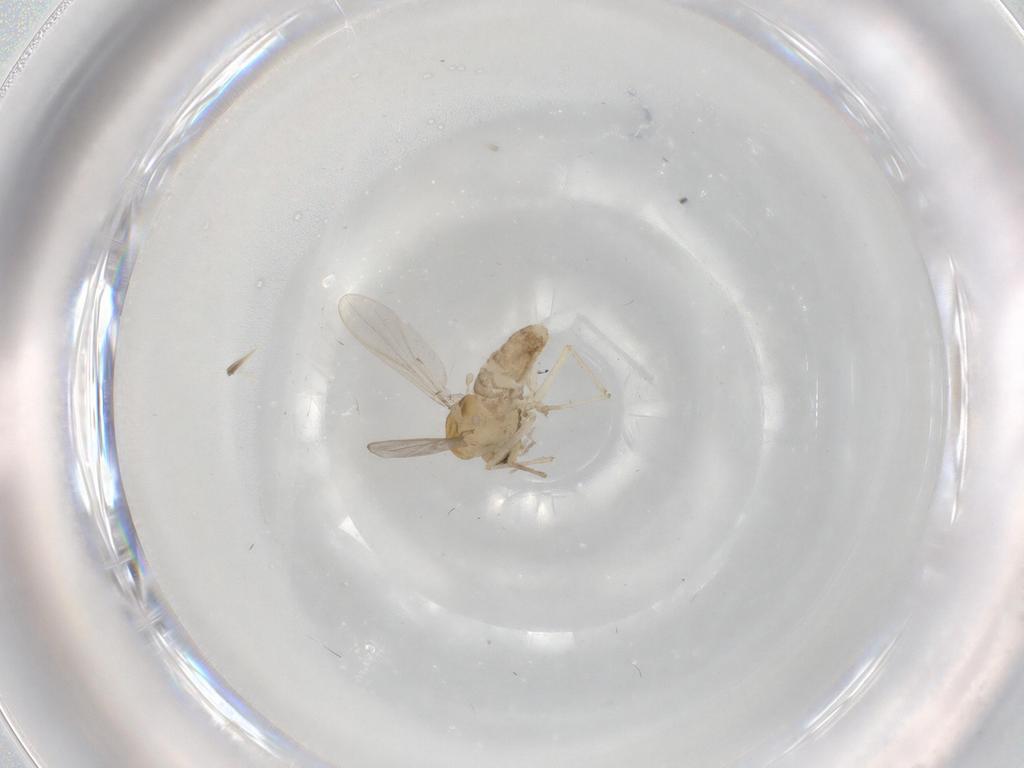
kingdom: Animalia
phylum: Arthropoda
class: Insecta
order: Diptera
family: Chironomidae
